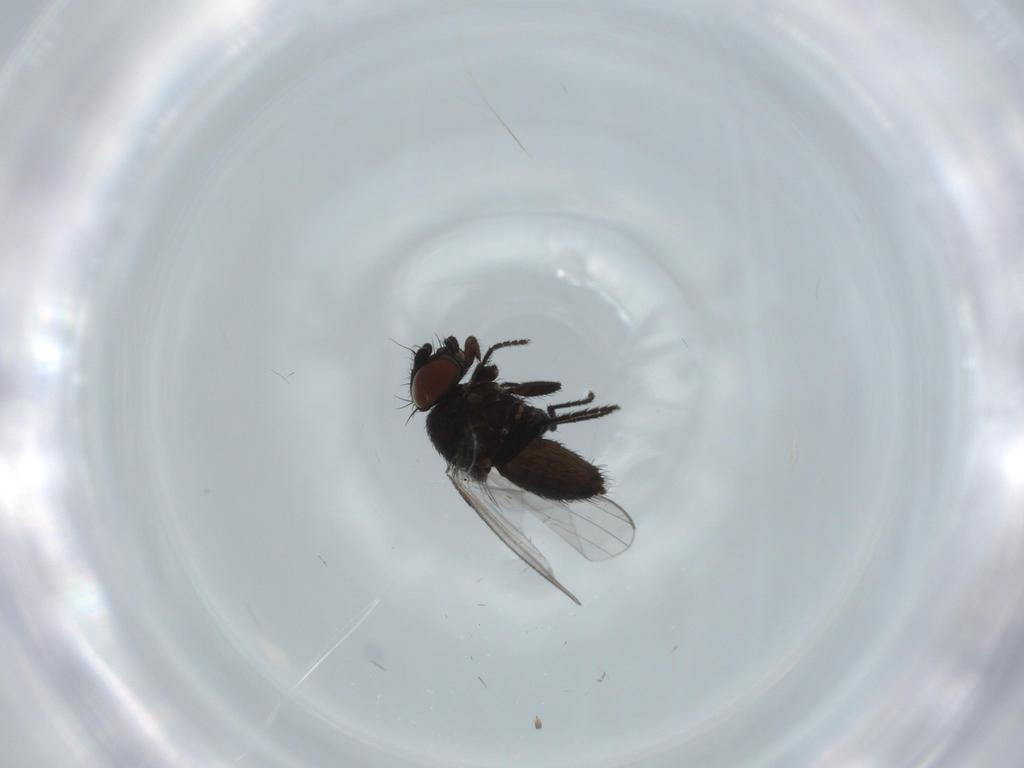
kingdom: Animalia
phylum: Arthropoda
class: Insecta
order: Diptera
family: Milichiidae
